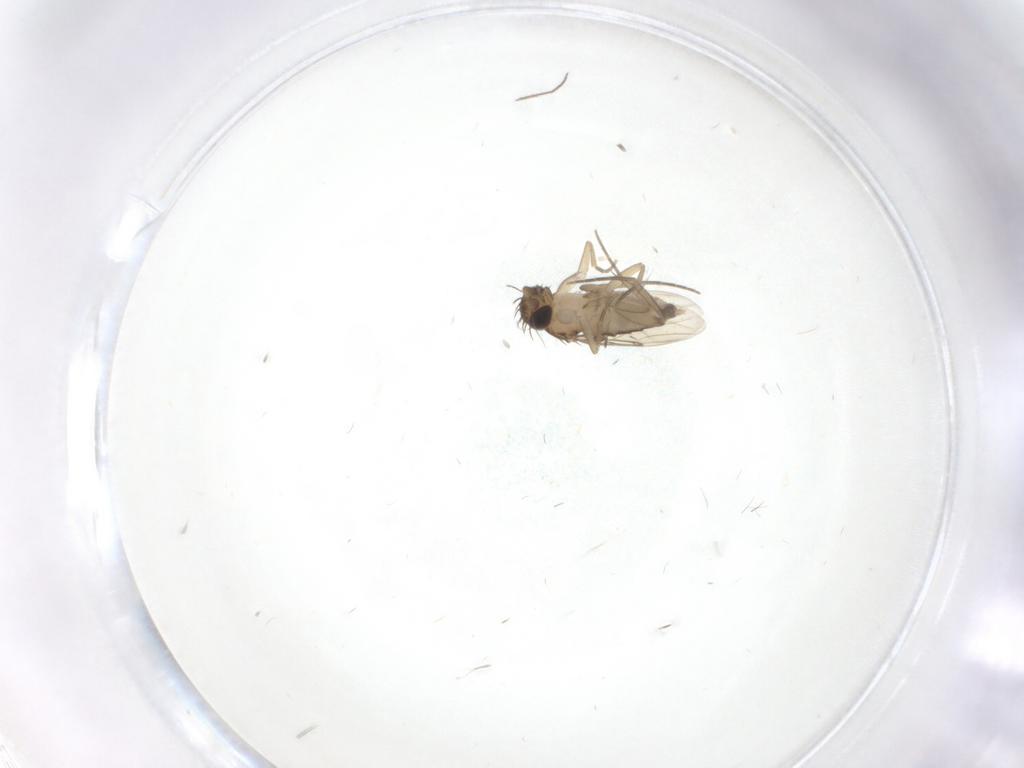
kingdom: Animalia
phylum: Arthropoda
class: Insecta
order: Diptera
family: Phoridae
